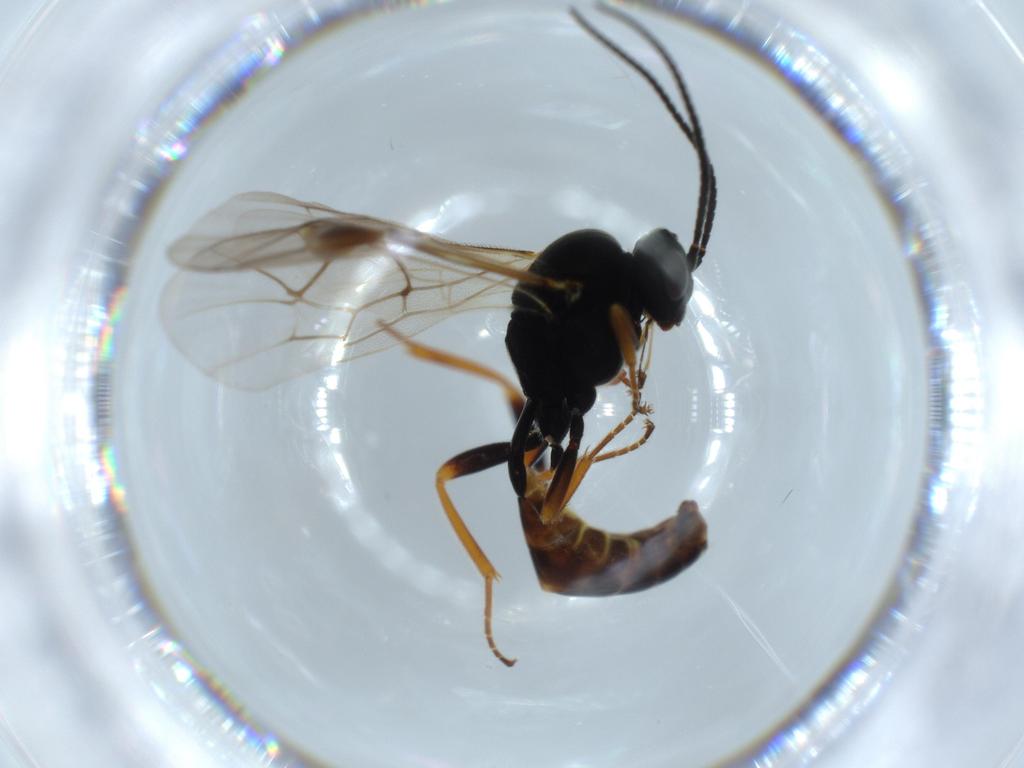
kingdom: Animalia
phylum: Arthropoda
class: Insecta
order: Hymenoptera
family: Ichneumonidae
